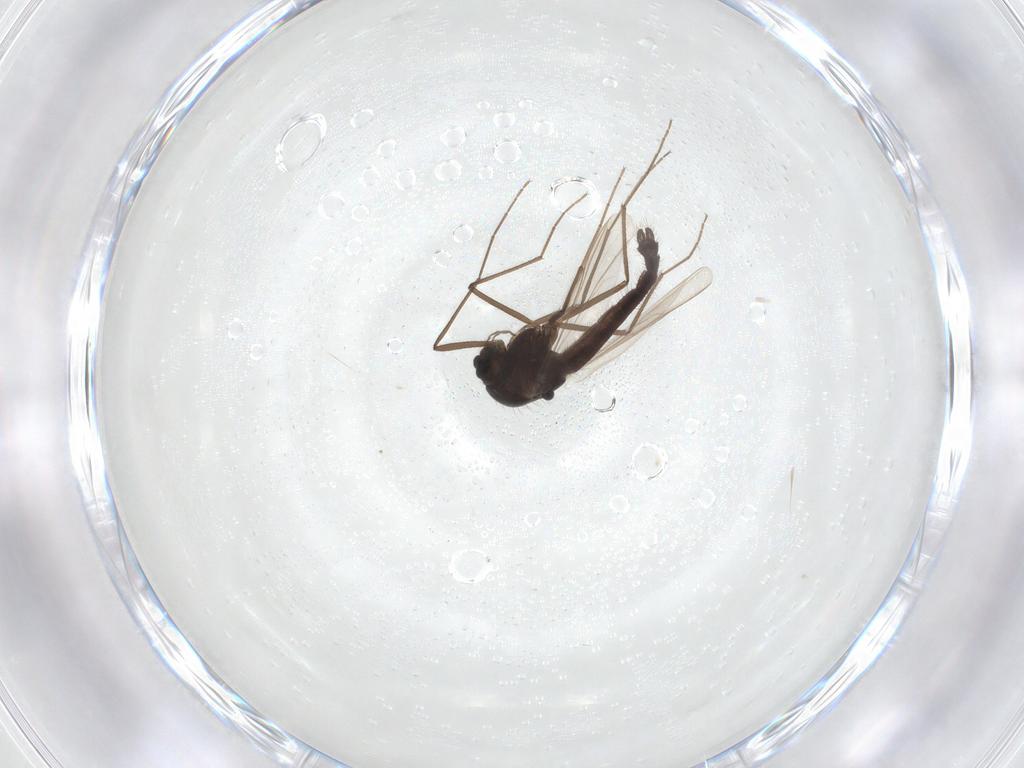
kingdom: Animalia
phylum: Arthropoda
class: Insecta
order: Diptera
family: Chironomidae
